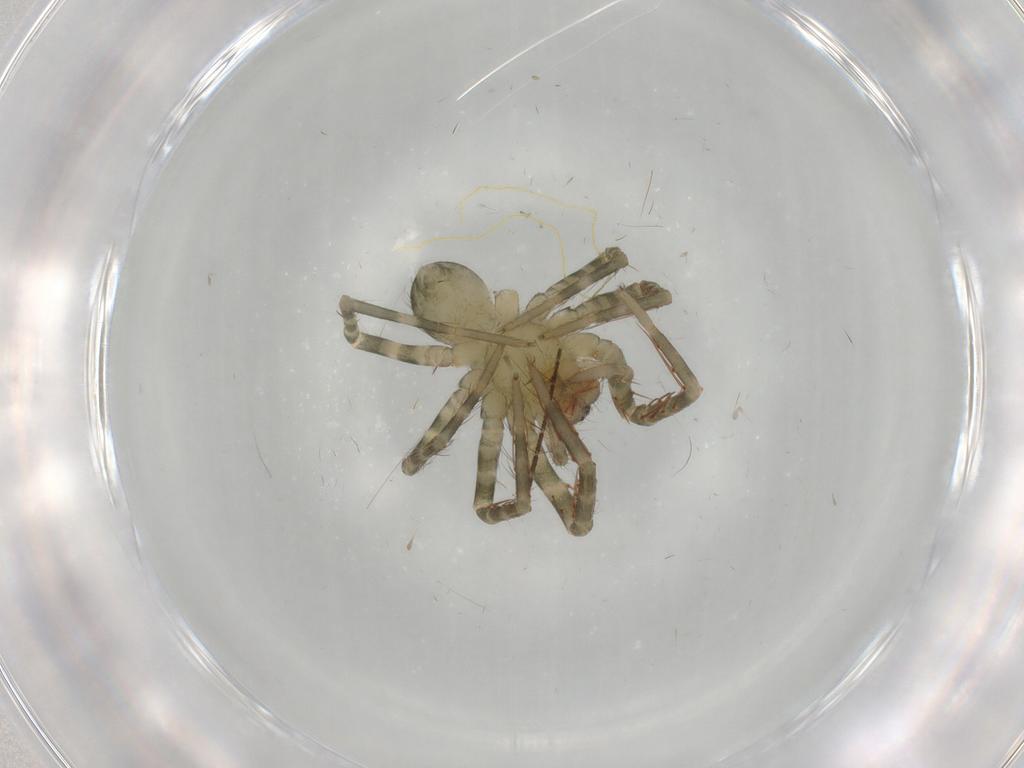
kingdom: Animalia
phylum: Arthropoda
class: Arachnida
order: Araneae
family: Ctenidae
